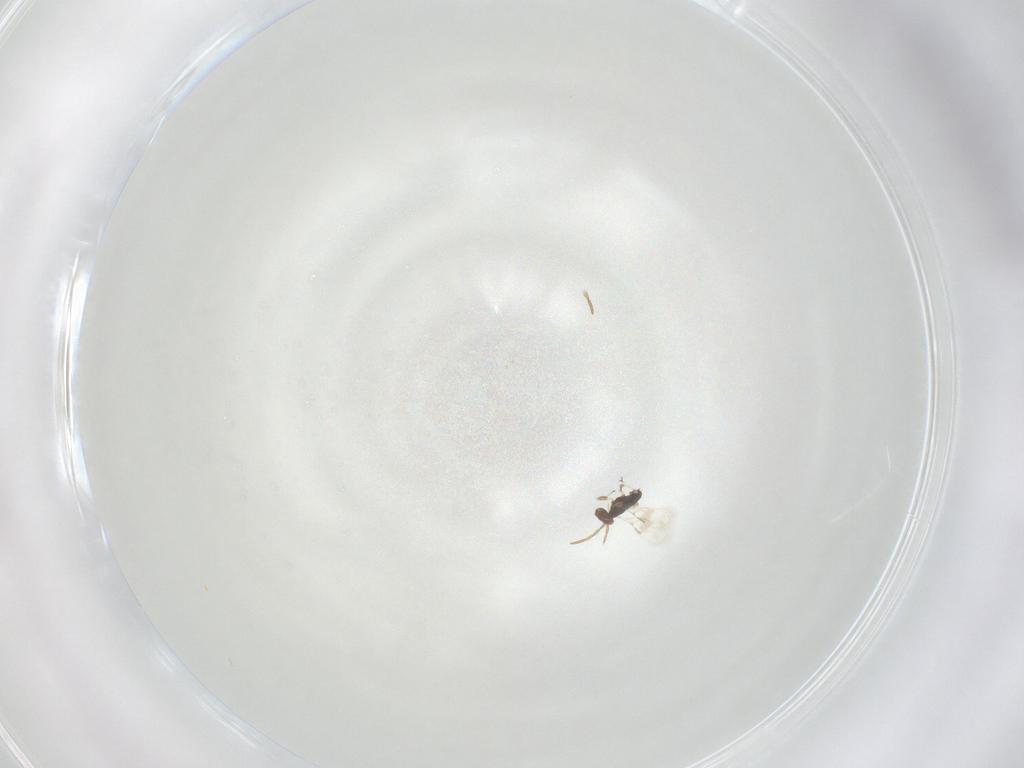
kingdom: Animalia
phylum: Arthropoda
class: Insecta
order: Hymenoptera
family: Azotidae
